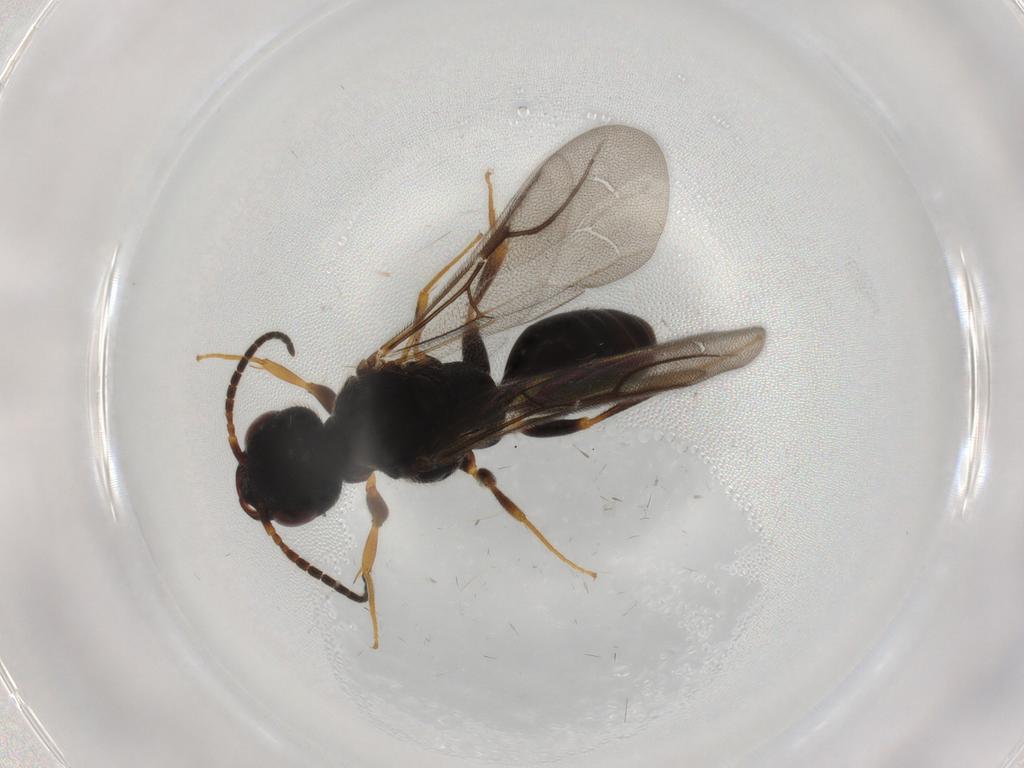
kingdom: Animalia
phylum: Arthropoda
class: Insecta
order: Hymenoptera
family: Bethylidae
